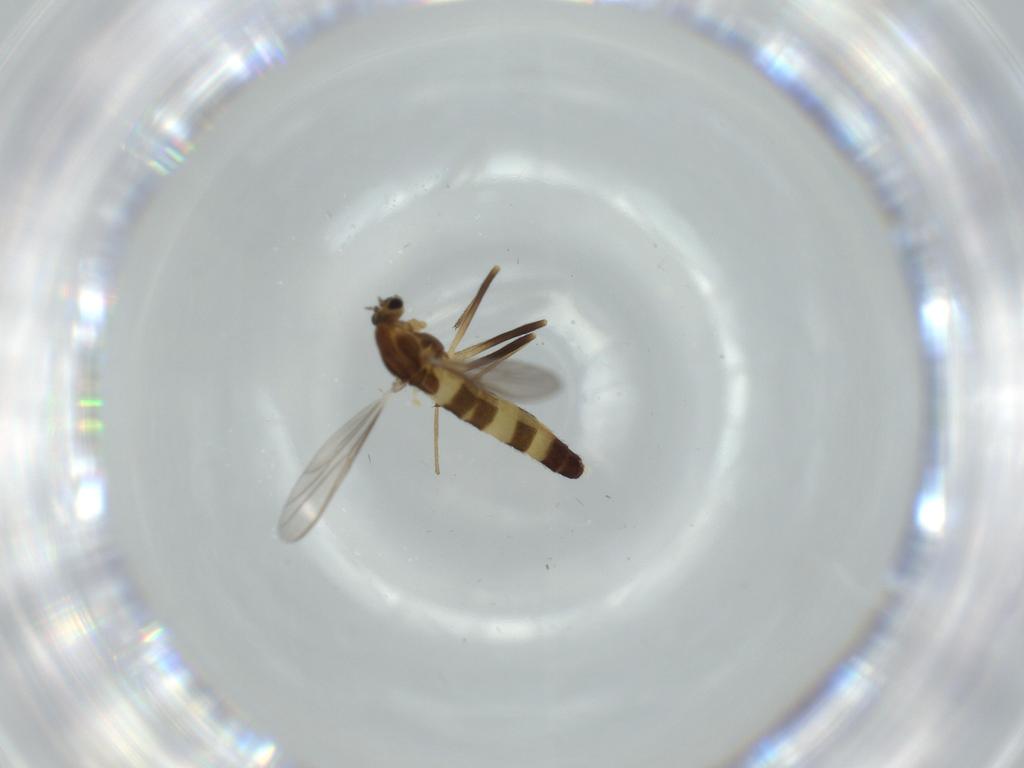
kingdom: Animalia
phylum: Arthropoda
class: Insecta
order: Diptera
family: Chironomidae
